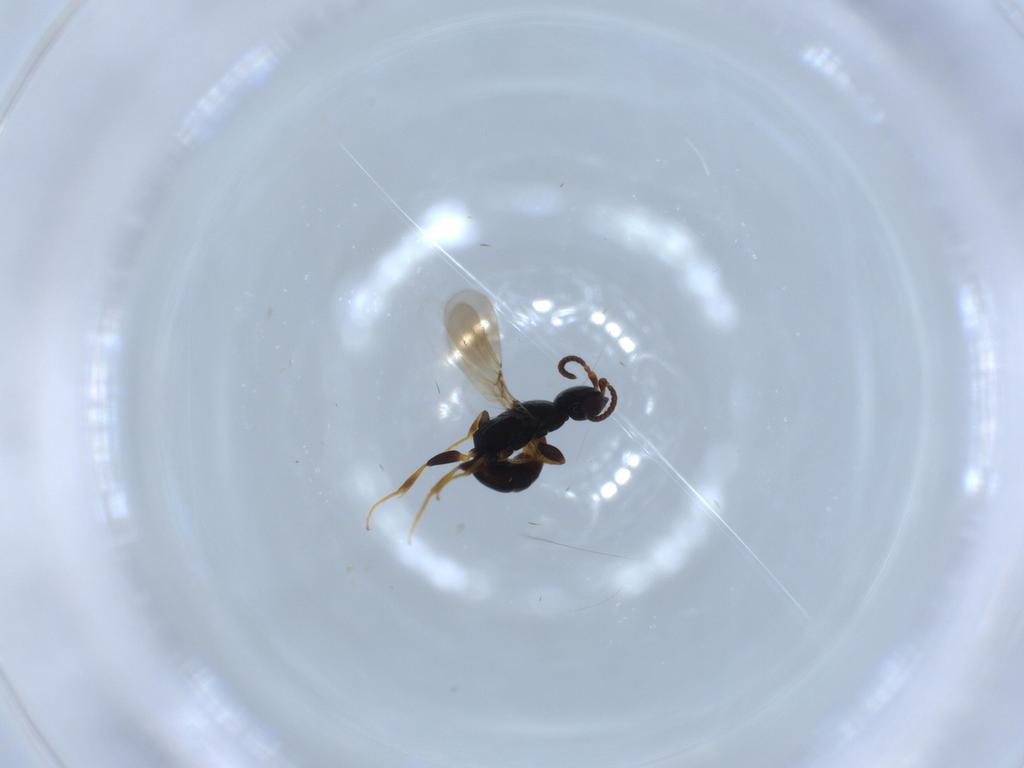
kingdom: Animalia
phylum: Arthropoda
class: Insecta
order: Hymenoptera
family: Bethylidae
